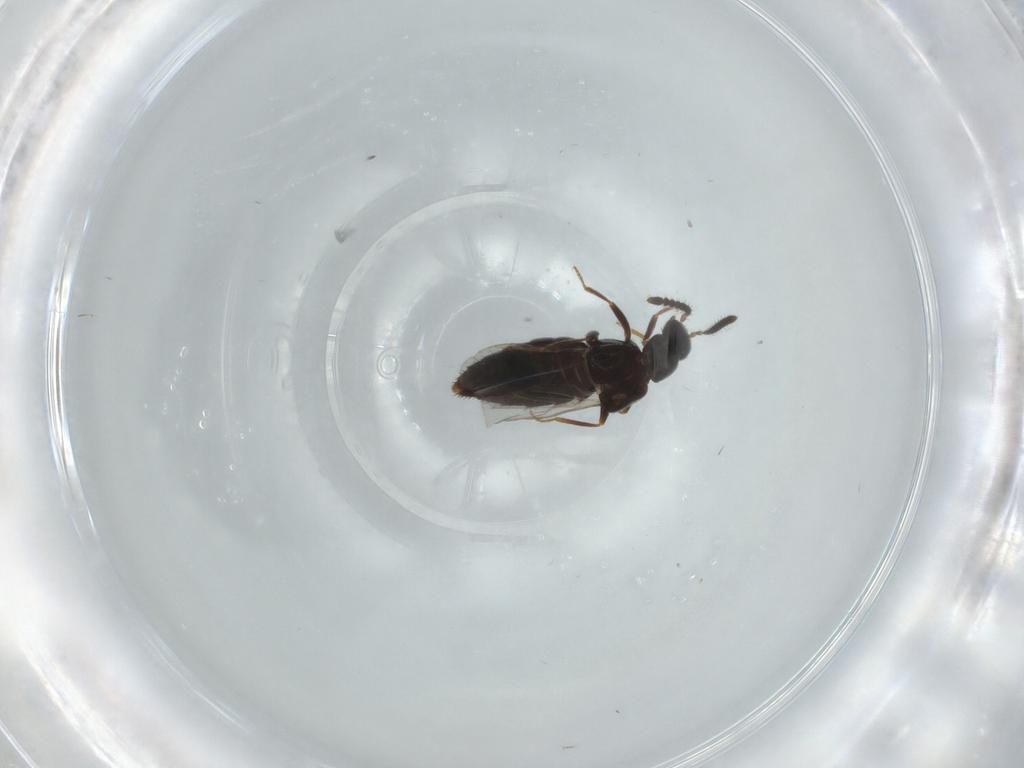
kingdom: Animalia
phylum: Arthropoda
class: Insecta
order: Coleoptera
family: Staphylinidae
